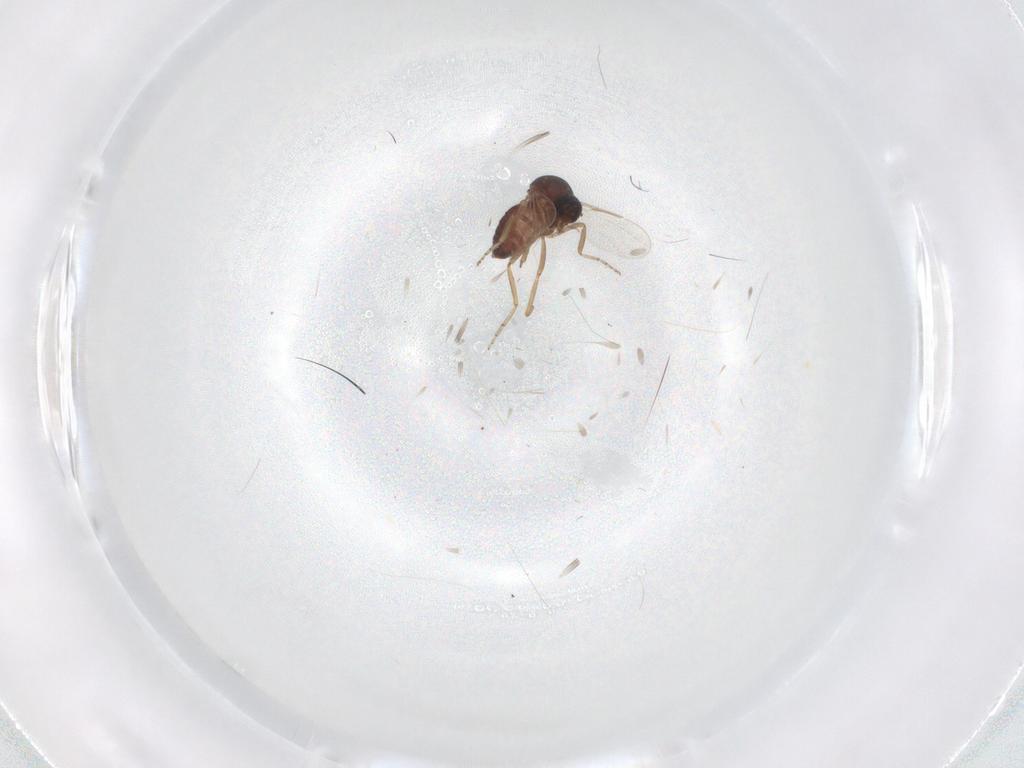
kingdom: Animalia
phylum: Arthropoda
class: Insecta
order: Diptera
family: Ceratopogonidae
